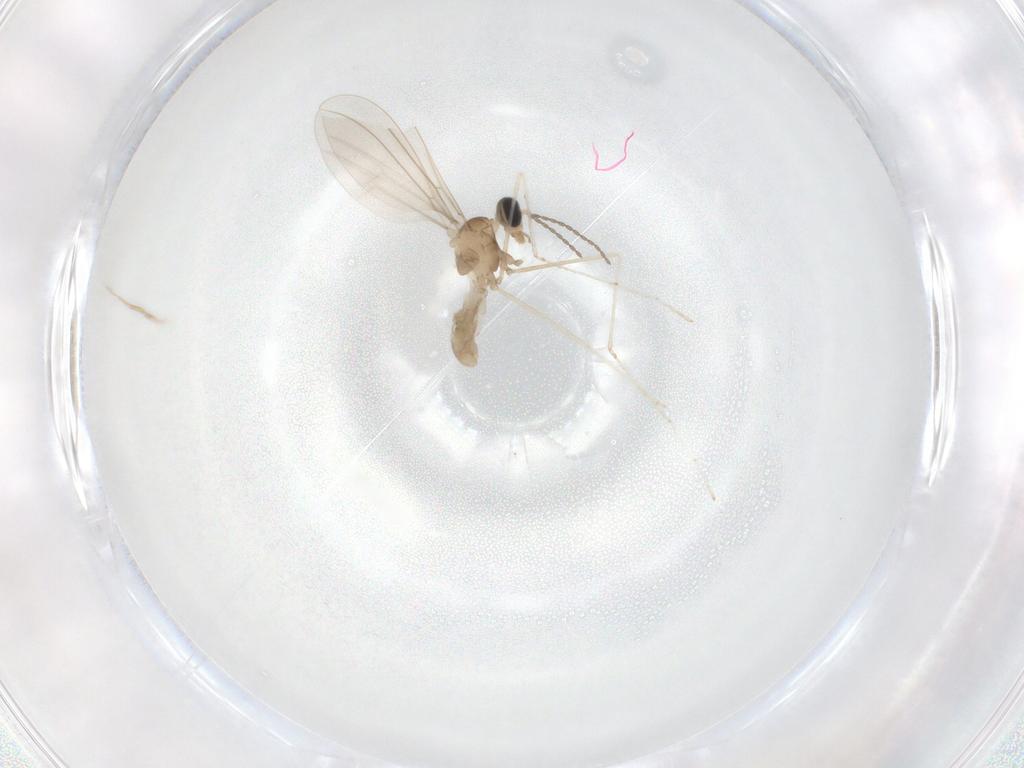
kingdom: Animalia
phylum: Arthropoda
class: Insecta
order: Diptera
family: Cecidomyiidae
